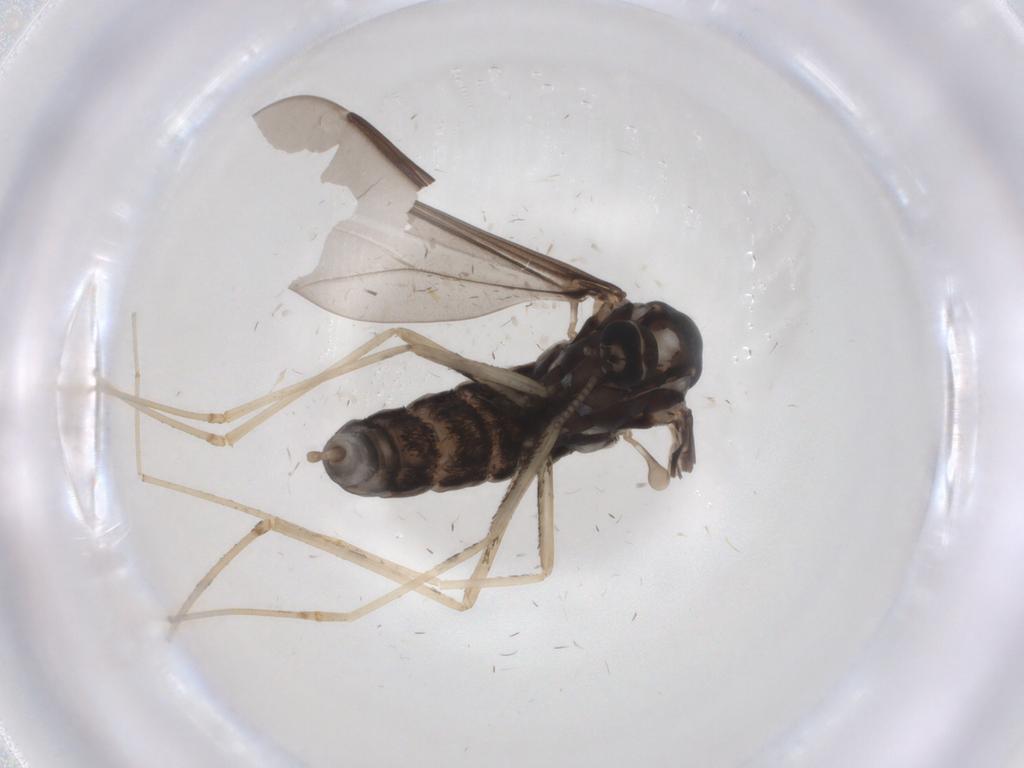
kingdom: Animalia
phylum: Arthropoda
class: Insecta
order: Diptera
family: Cecidomyiidae
